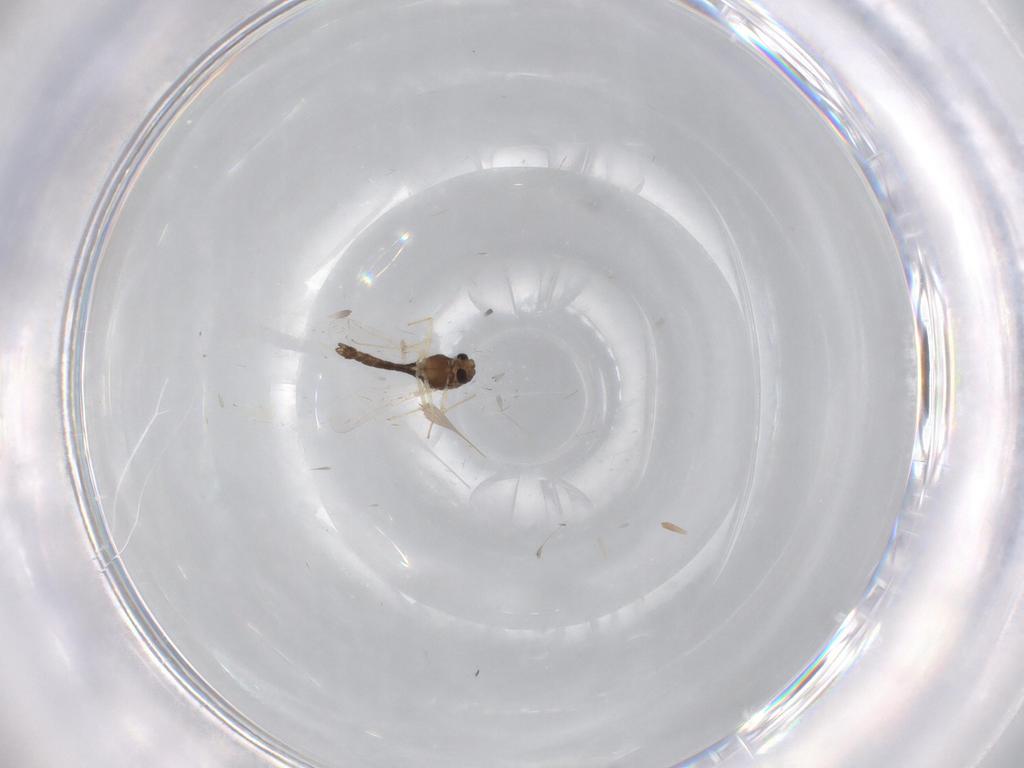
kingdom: Animalia
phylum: Arthropoda
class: Insecta
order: Diptera
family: Chironomidae
